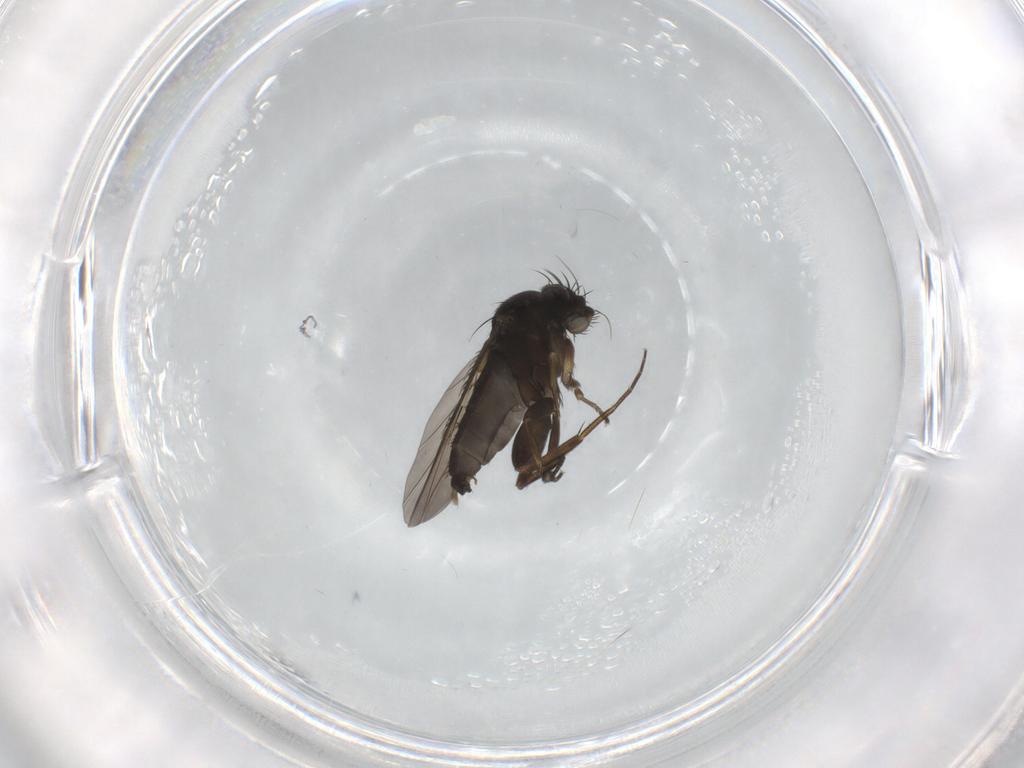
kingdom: Animalia
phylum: Arthropoda
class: Insecta
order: Diptera
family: Phoridae
